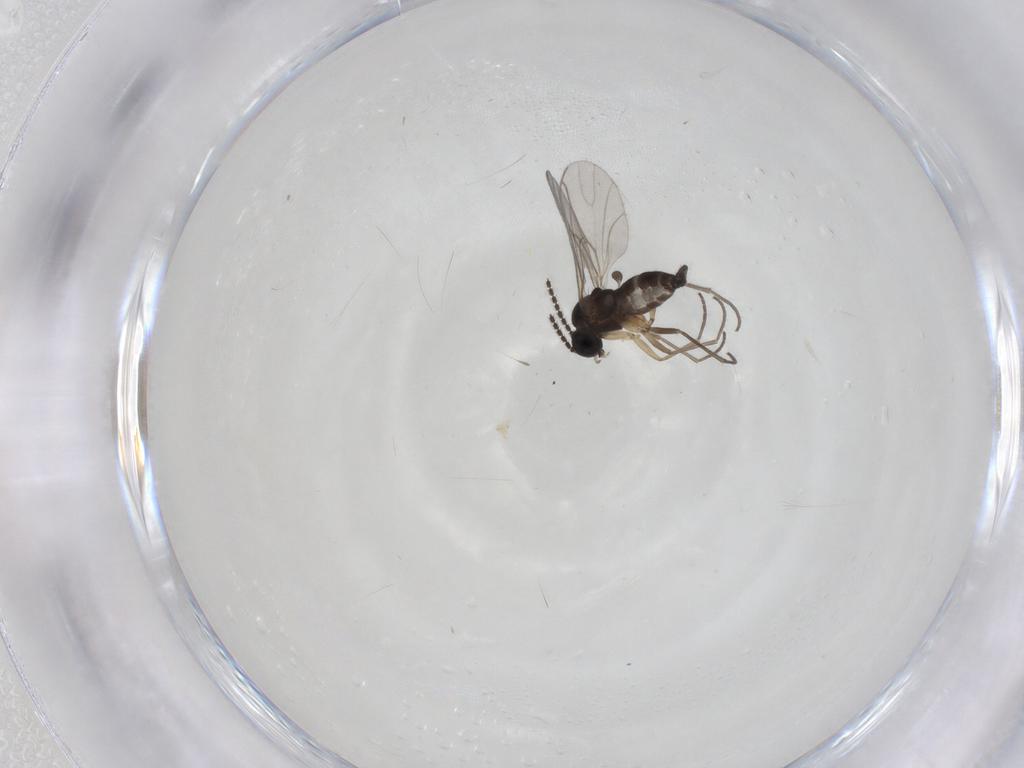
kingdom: Animalia
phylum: Arthropoda
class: Insecta
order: Diptera
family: Sciaridae
